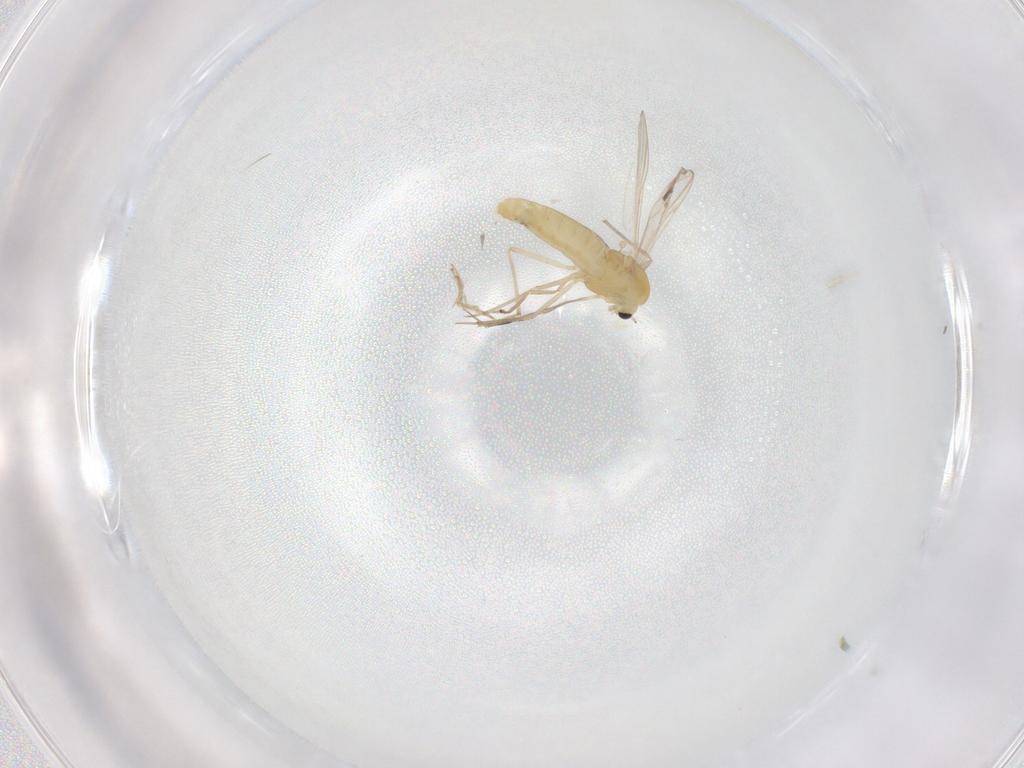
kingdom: Animalia
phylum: Arthropoda
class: Insecta
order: Diptera
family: Chironomidae
